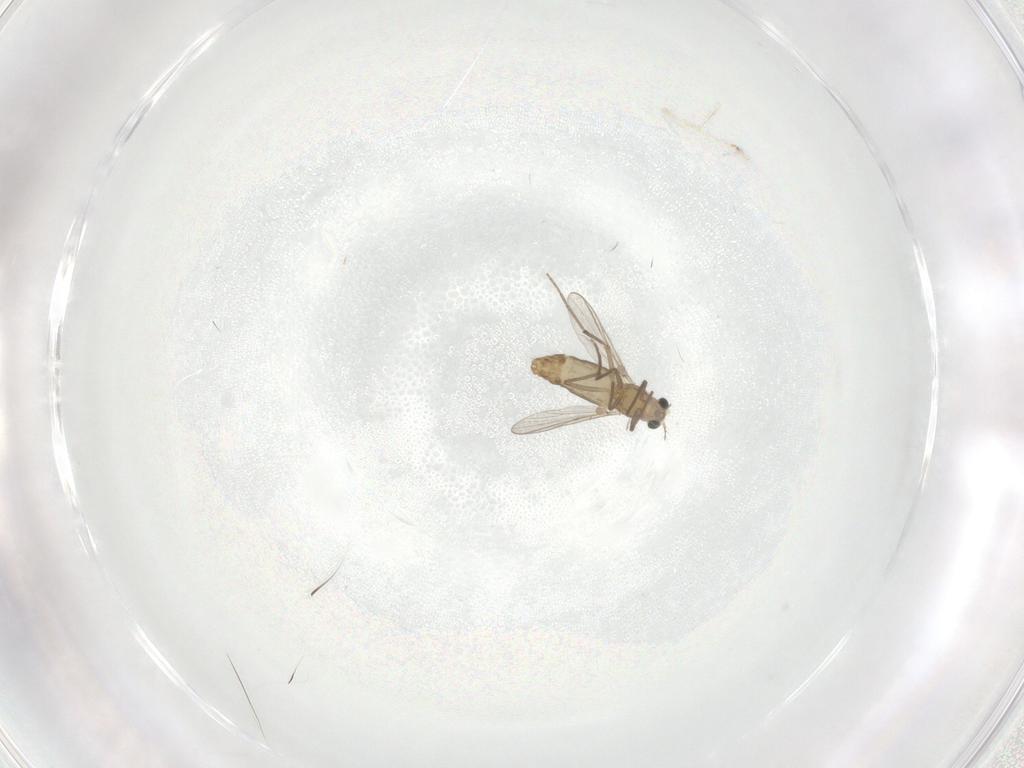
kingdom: Animalia
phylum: Arthropoda
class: Insecta
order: Diptera
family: Chironomidae
